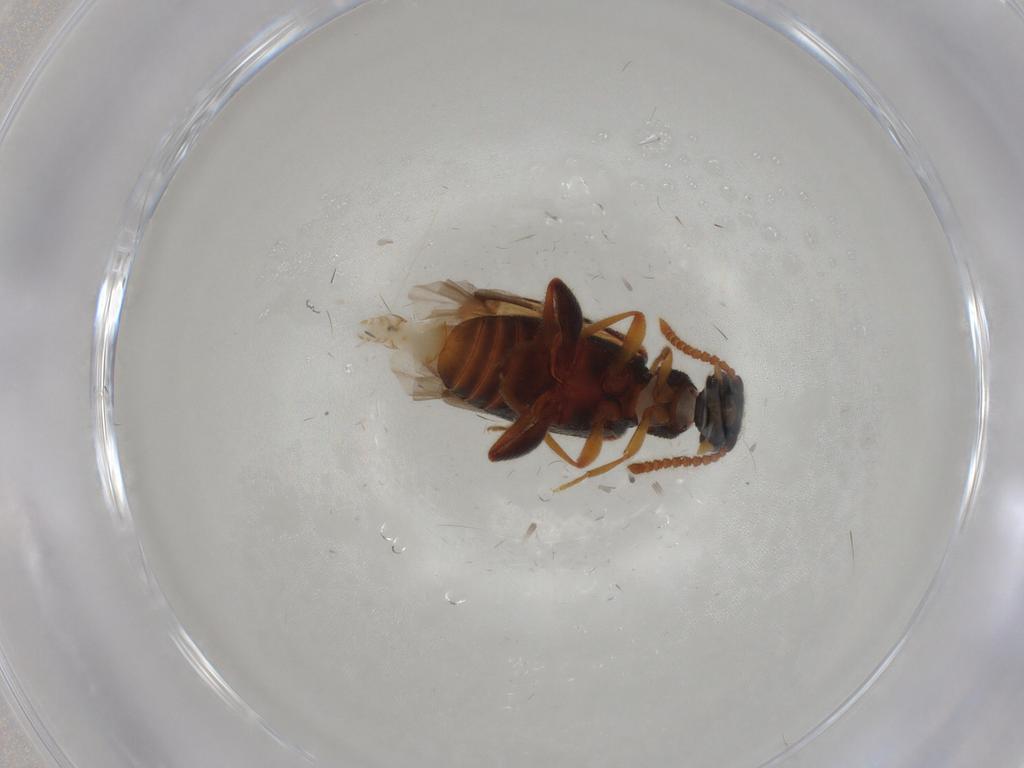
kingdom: Animalia
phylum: Arthropoda
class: Insecta
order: Coleoptera
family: Aderidae
